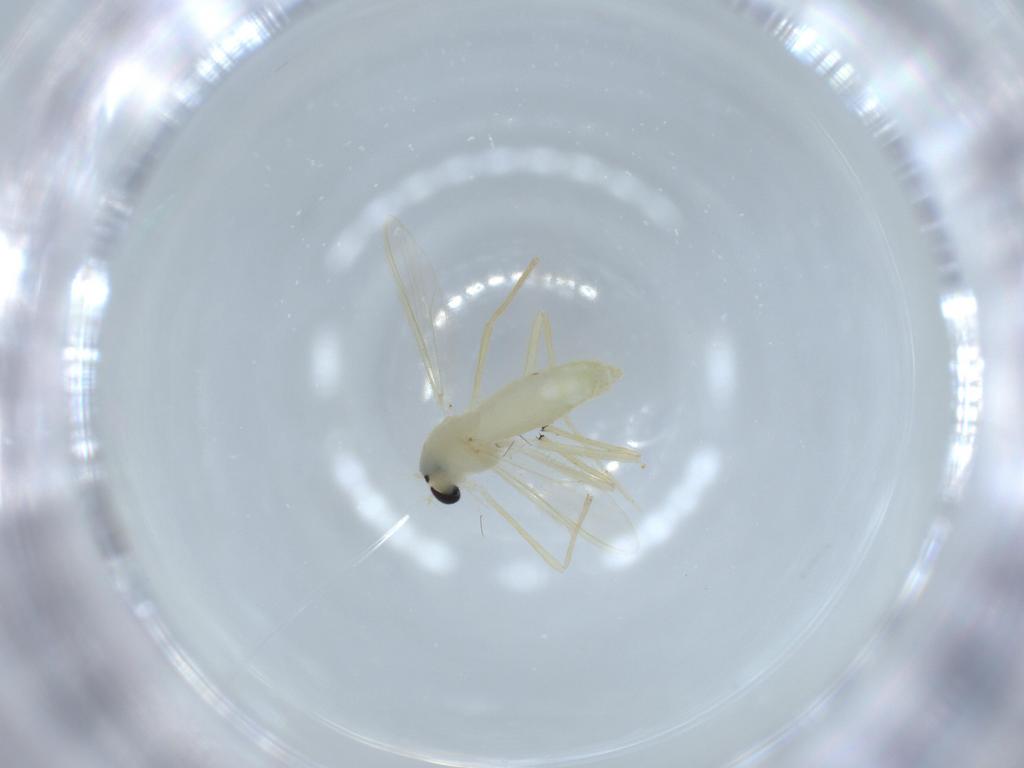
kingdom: Animalia
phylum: Arthropoda
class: Insecta
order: Diptera
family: Chironomidae
